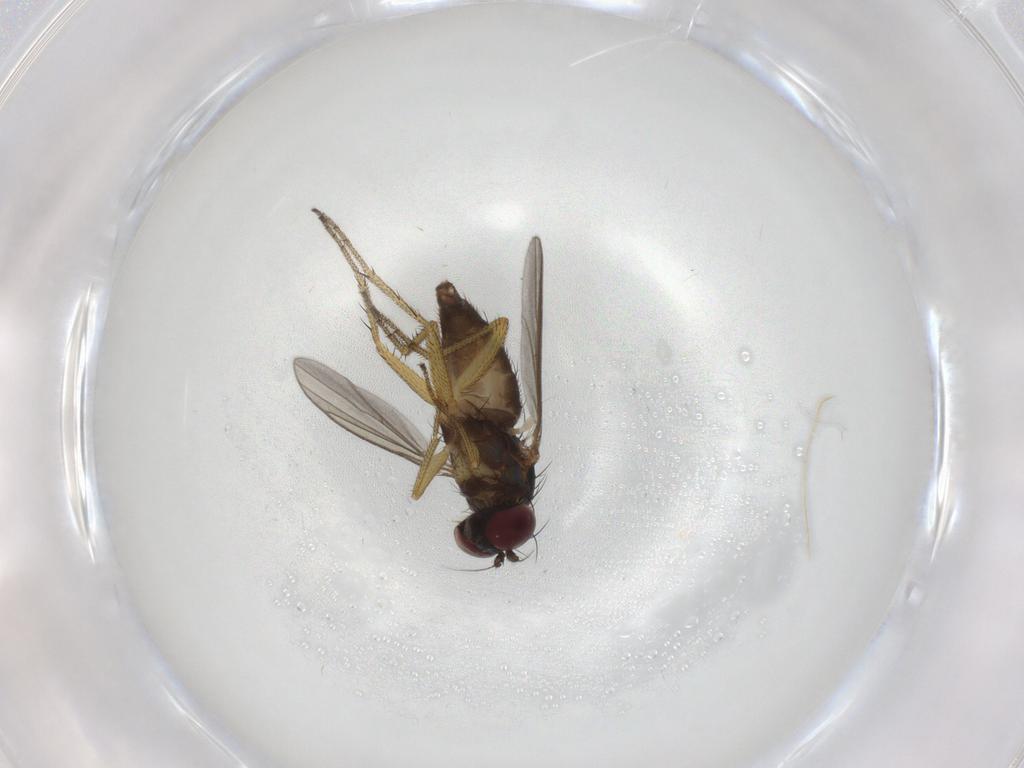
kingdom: Animalia
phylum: Arthropoda
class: Insecta
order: Diptera
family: Dolichopodidae
